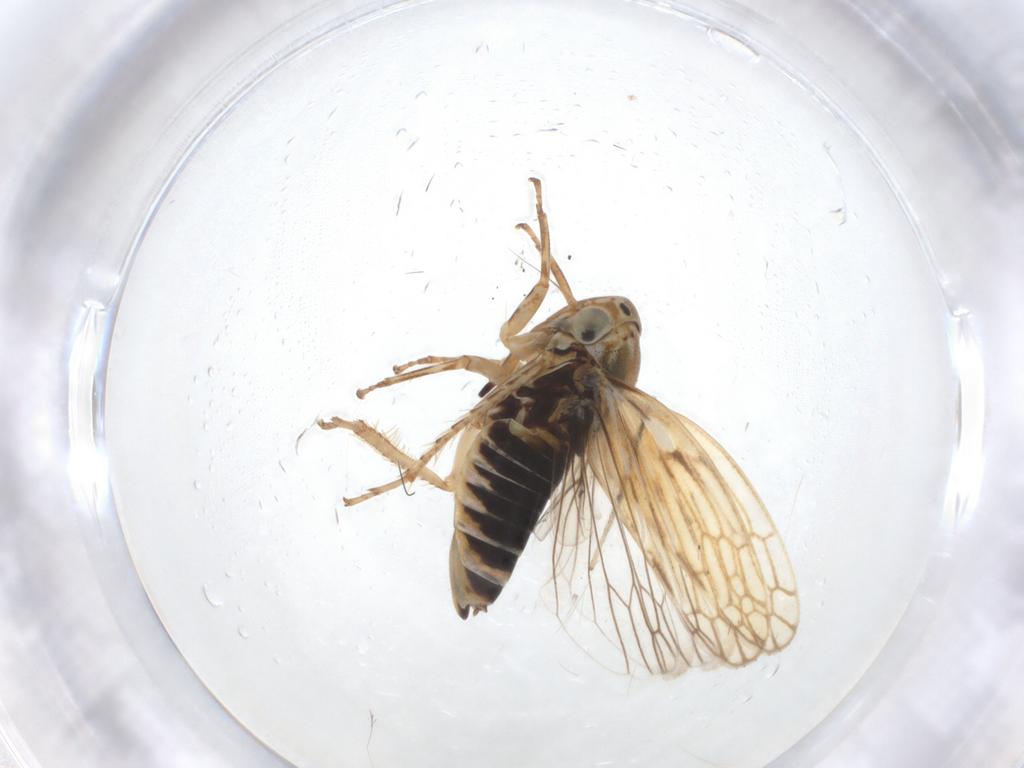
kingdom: Animalia
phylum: Arthropoda
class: Insecta
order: Hemiptera
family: Cicadellidae
